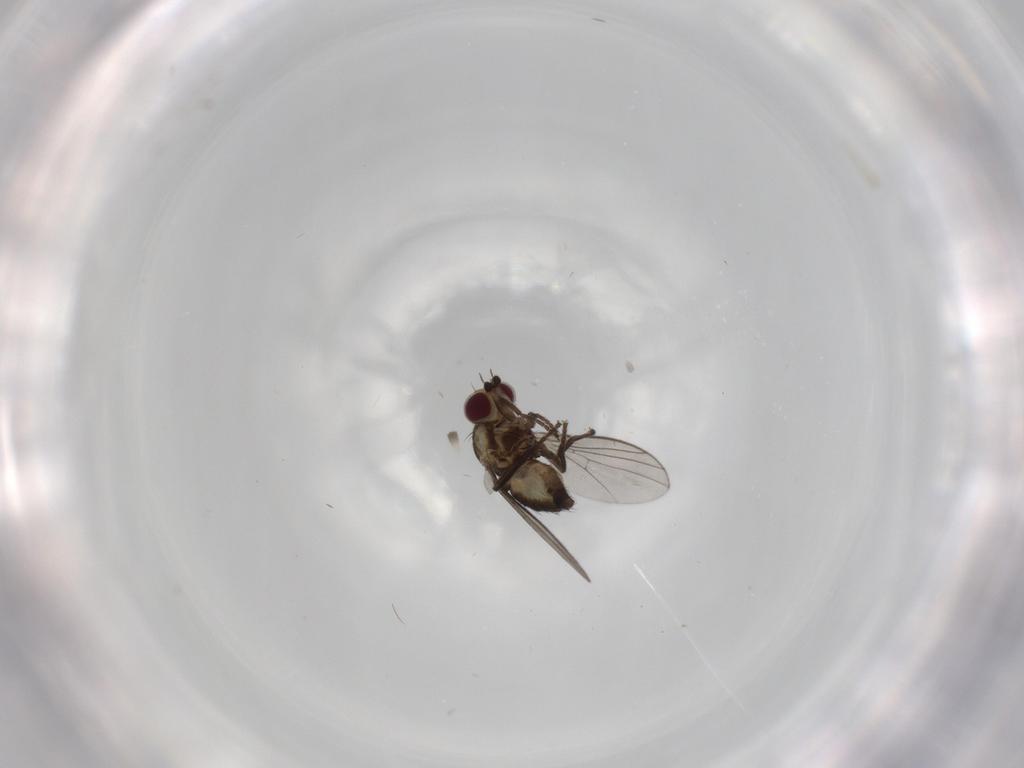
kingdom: Animalia
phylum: Arthropoda
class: Insecta
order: Diptera
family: Agromyzidae
